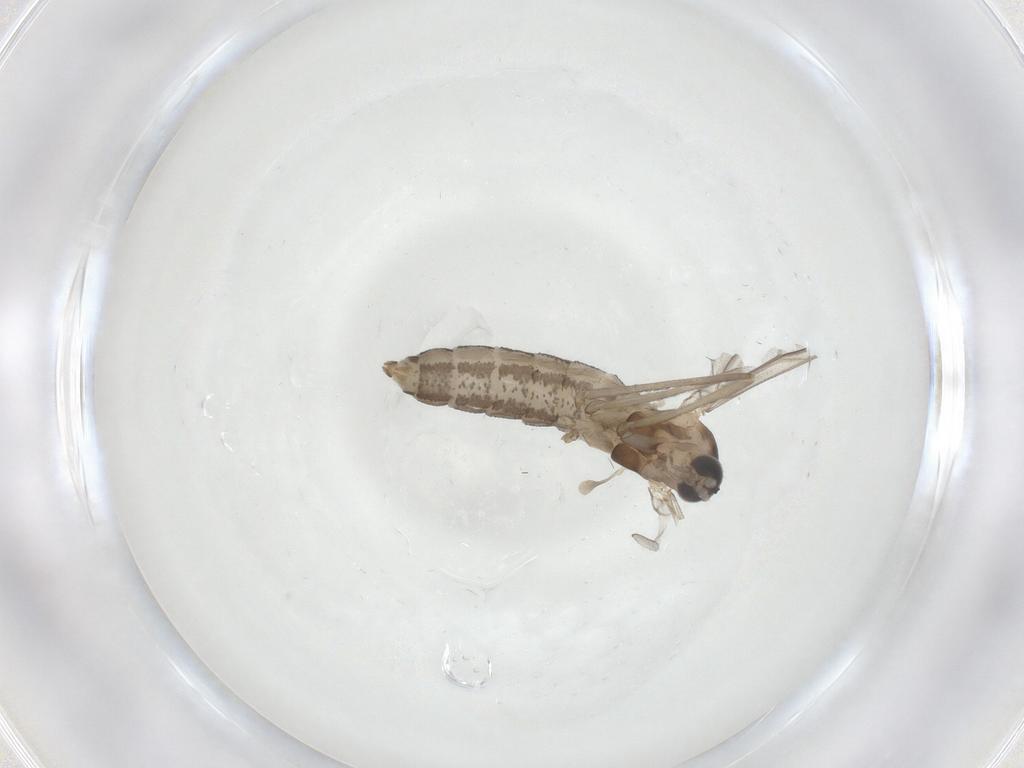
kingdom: Animalia
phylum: Arthropoda
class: Insecta
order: Diptera
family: Cecidomyiidae
